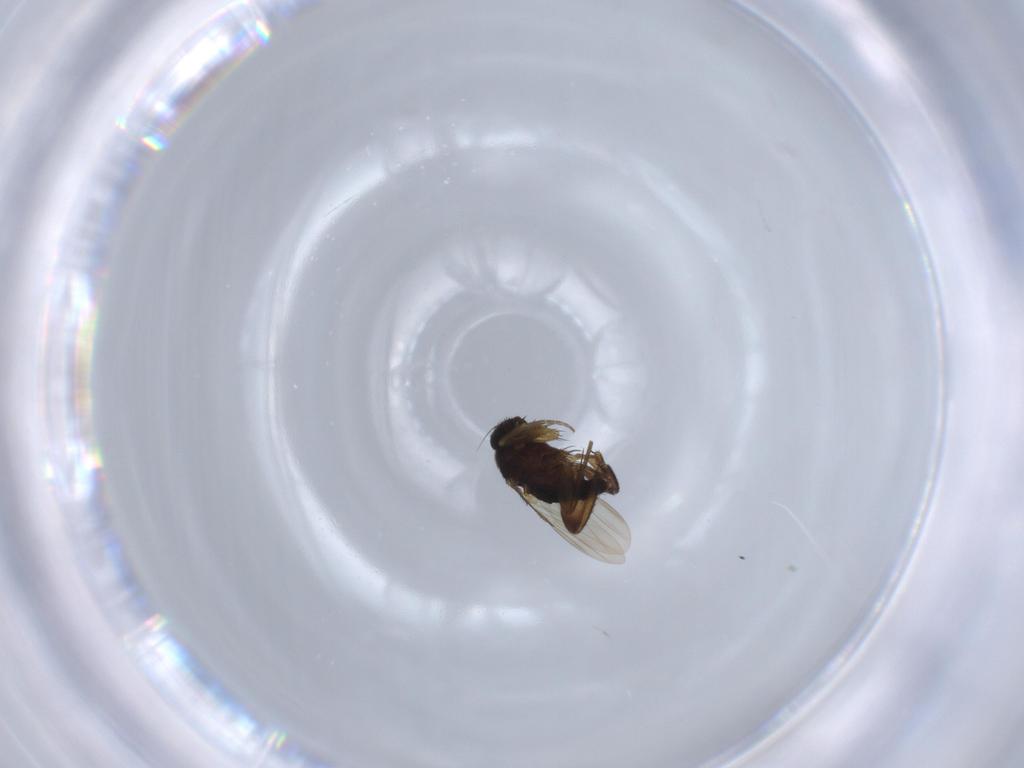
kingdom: Animalia
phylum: Arthropoda
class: Insecta
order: Diptera
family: Phoridae
